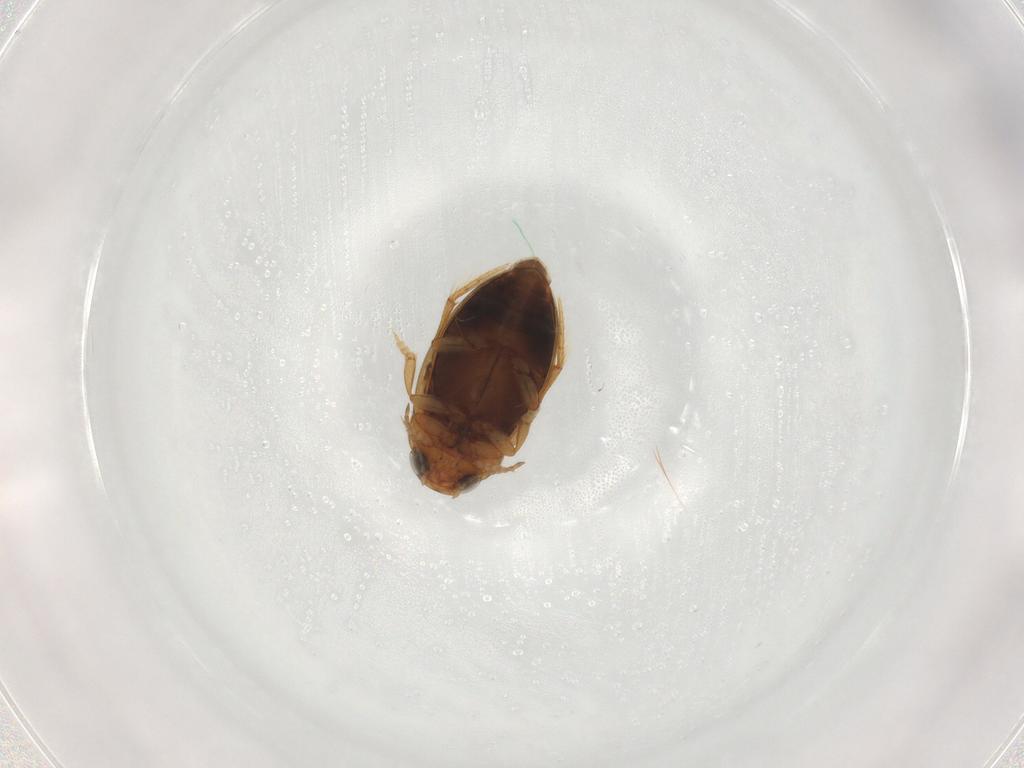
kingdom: Animalia
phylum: Arthropoda
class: Insecta
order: Coleoptera
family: Dytiscidae
